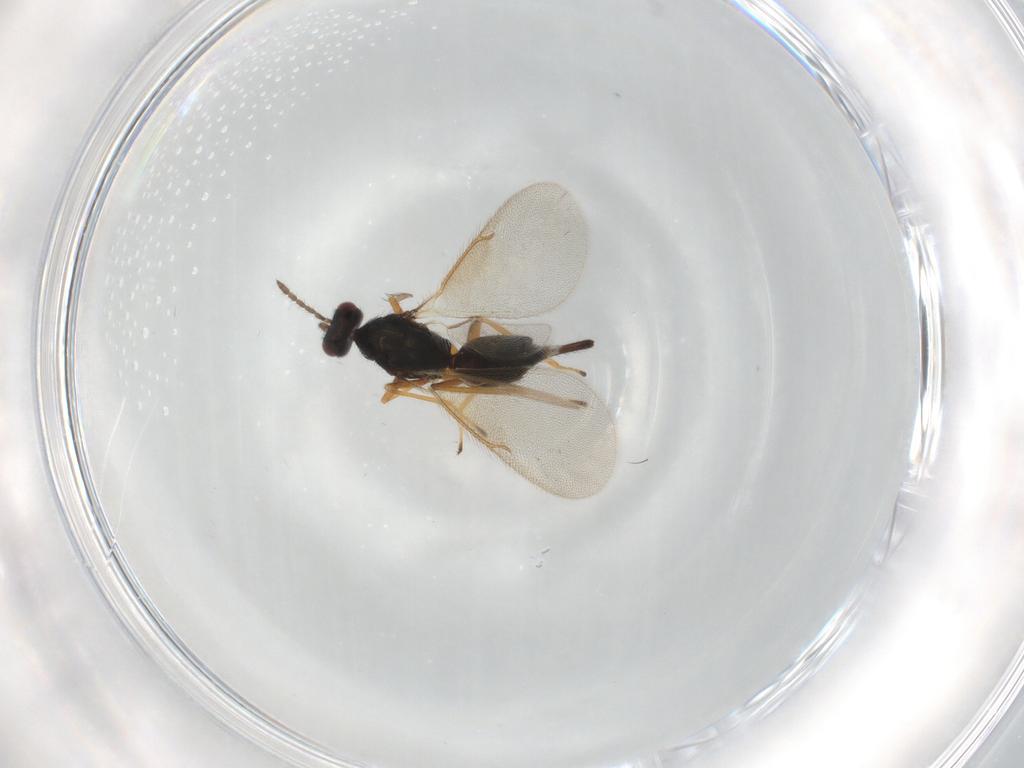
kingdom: Animalia
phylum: Arthropoda
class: Insecta
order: Hymenoptera
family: Eulophidae
